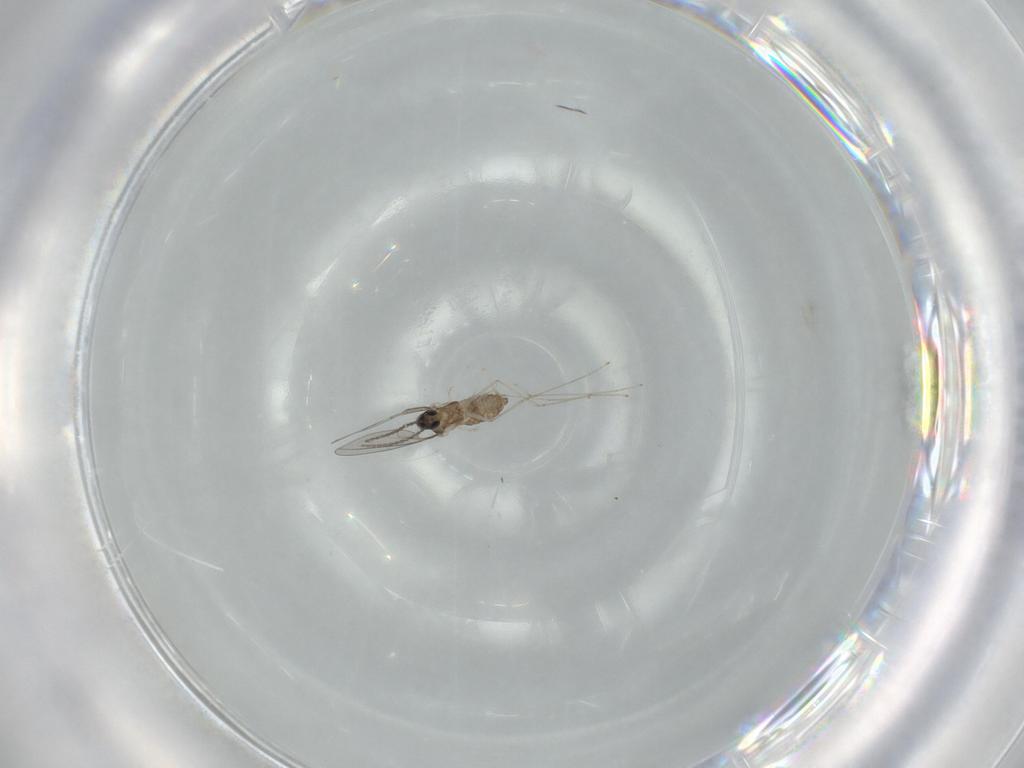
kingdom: Animalia
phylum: Arthropoda
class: Insecta
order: Diptera
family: Cecidomyiidae
